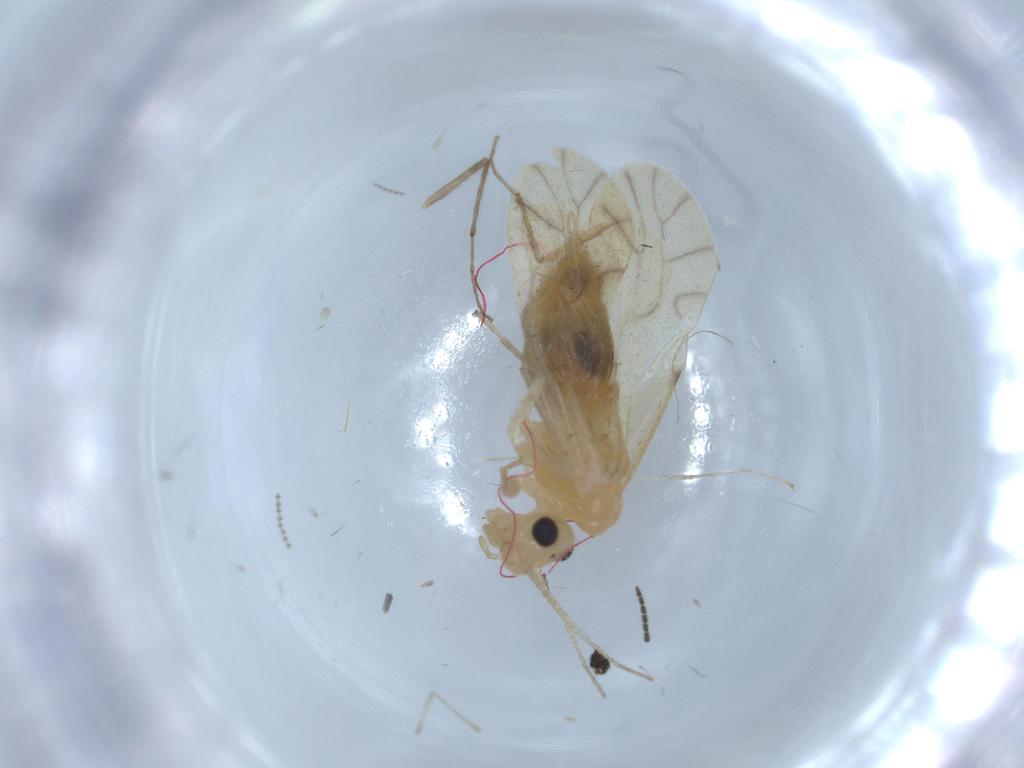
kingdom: Animalia
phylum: Arthropoda
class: Insecta
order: Psocodea
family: Caeciliusidae
